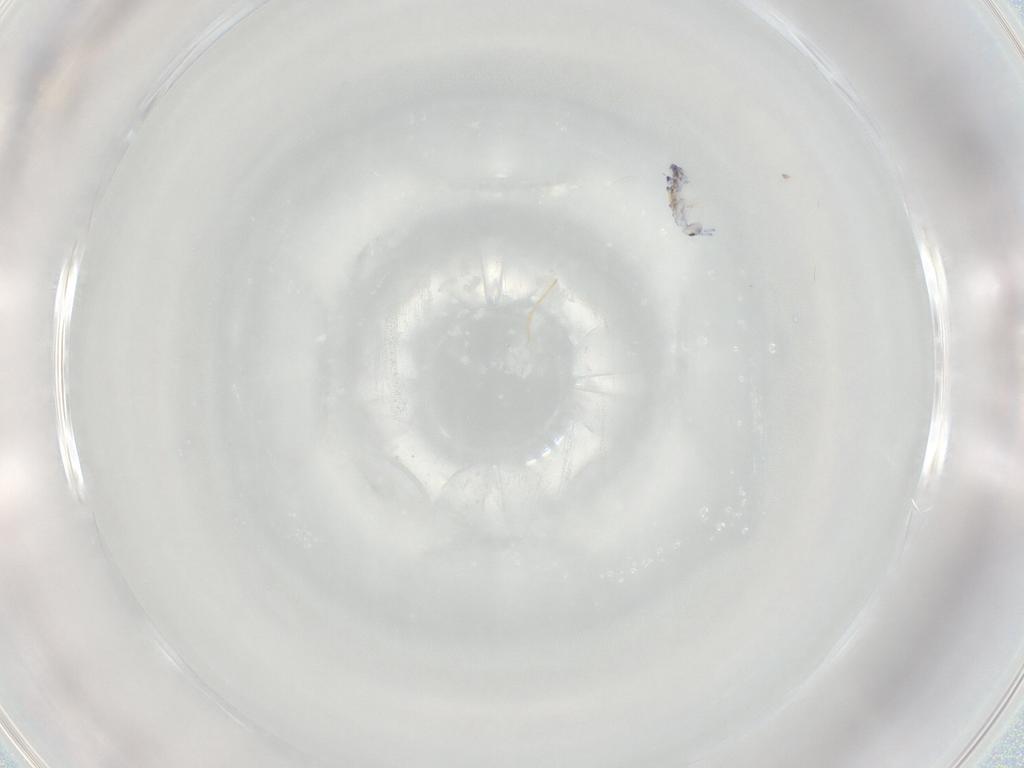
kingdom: Animalia
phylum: Arthropoda
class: Collembola
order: Entomobryomorpha
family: Entomobryidae
